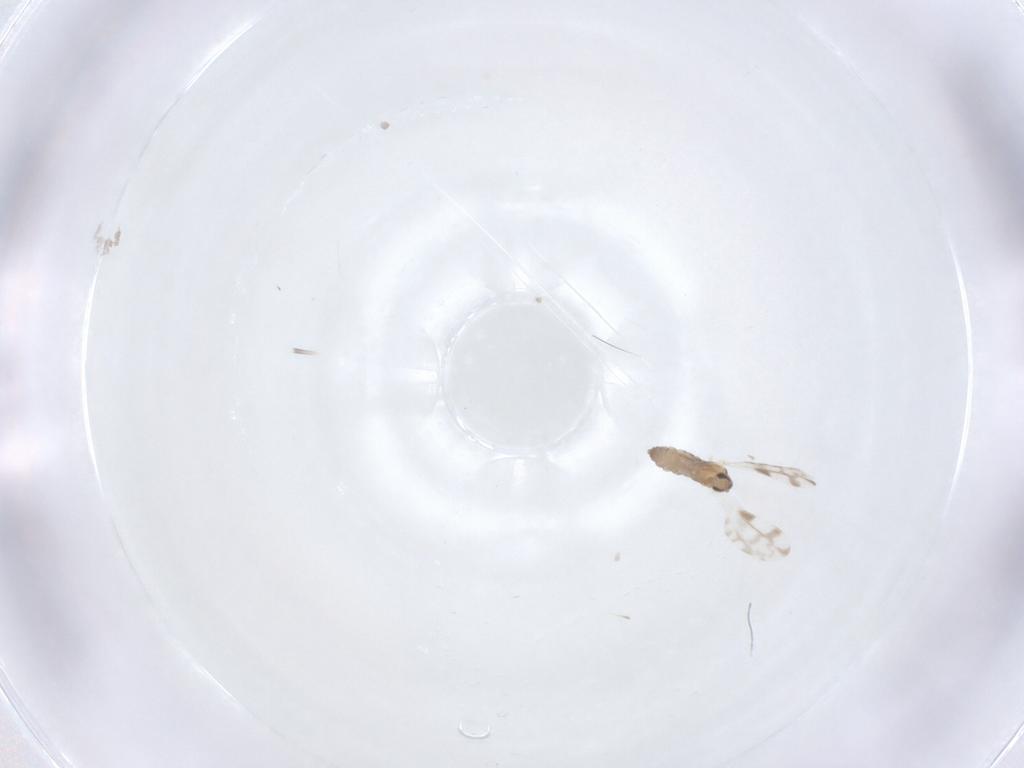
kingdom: Animalia
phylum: Arthropoda
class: Insecta
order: Diptera
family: Cecidomyiidae
